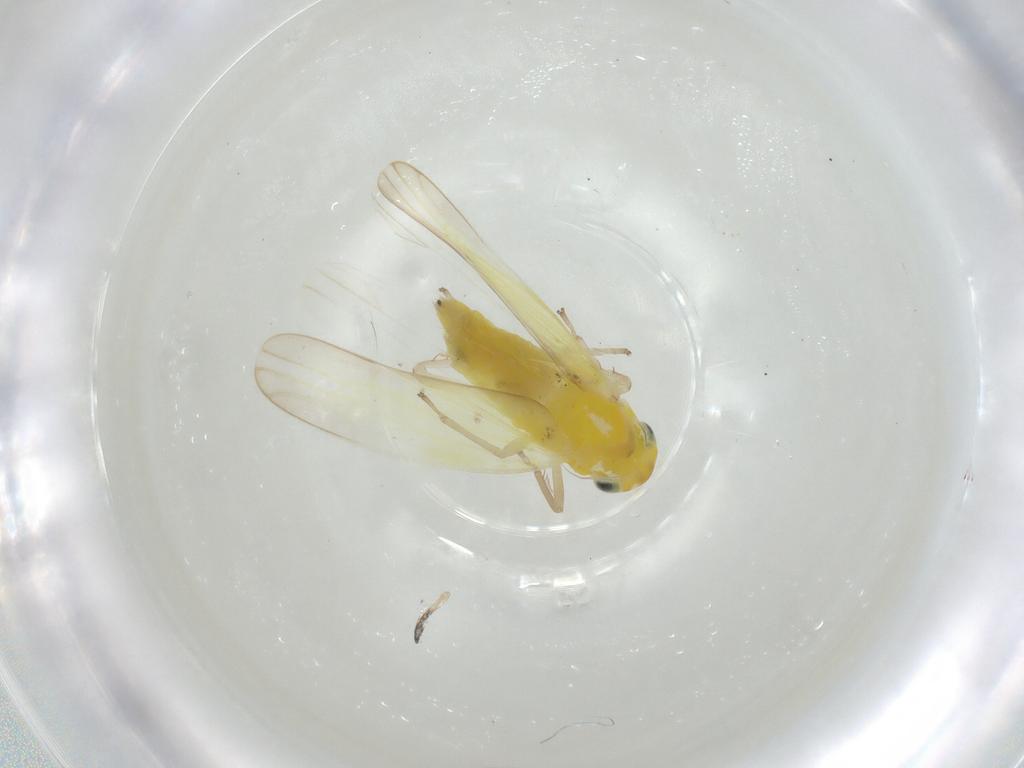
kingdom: Animalia
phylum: Arthropoda
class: Insecta
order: Hemiptera
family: Cicadellidae
